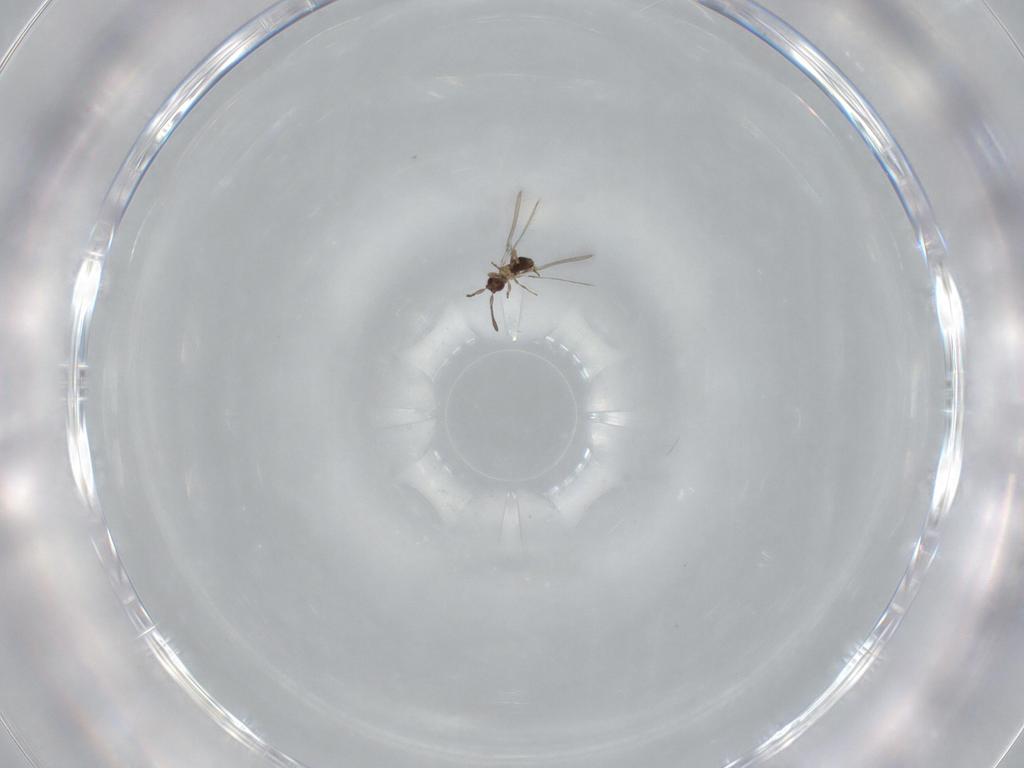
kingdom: Animalia
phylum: Arthropoda
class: Insecta
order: Hymenoptera
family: Mymaridae
